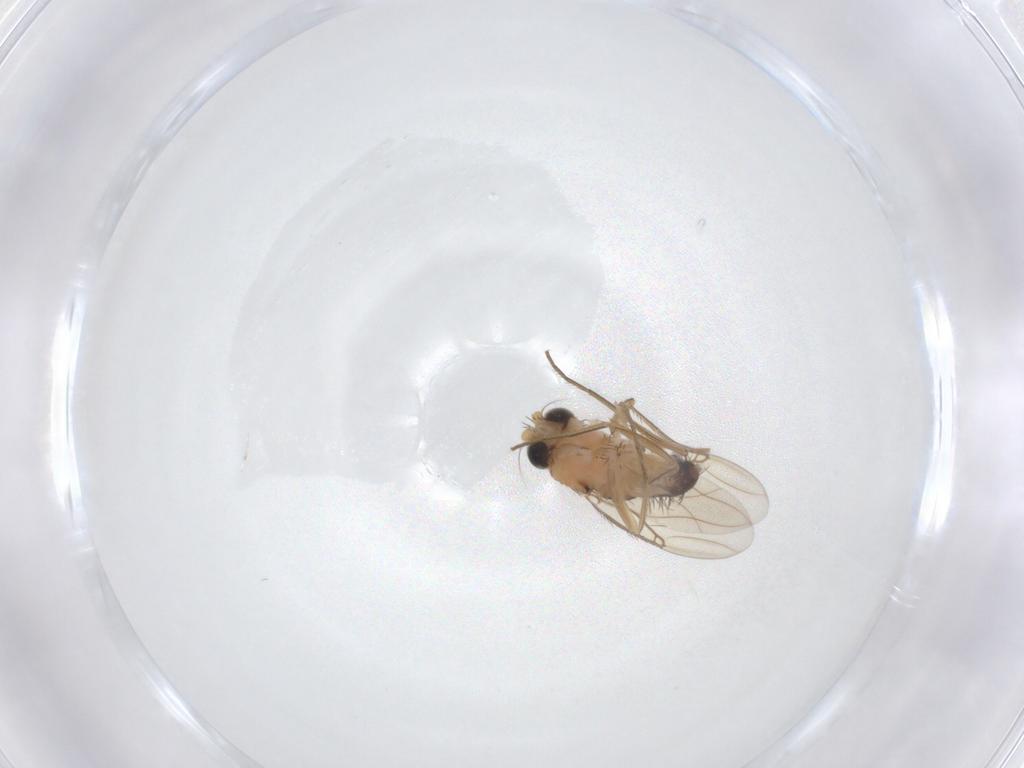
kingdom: Animalia
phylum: Arthropoda
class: Insecta
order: Diptera
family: Phoridae
